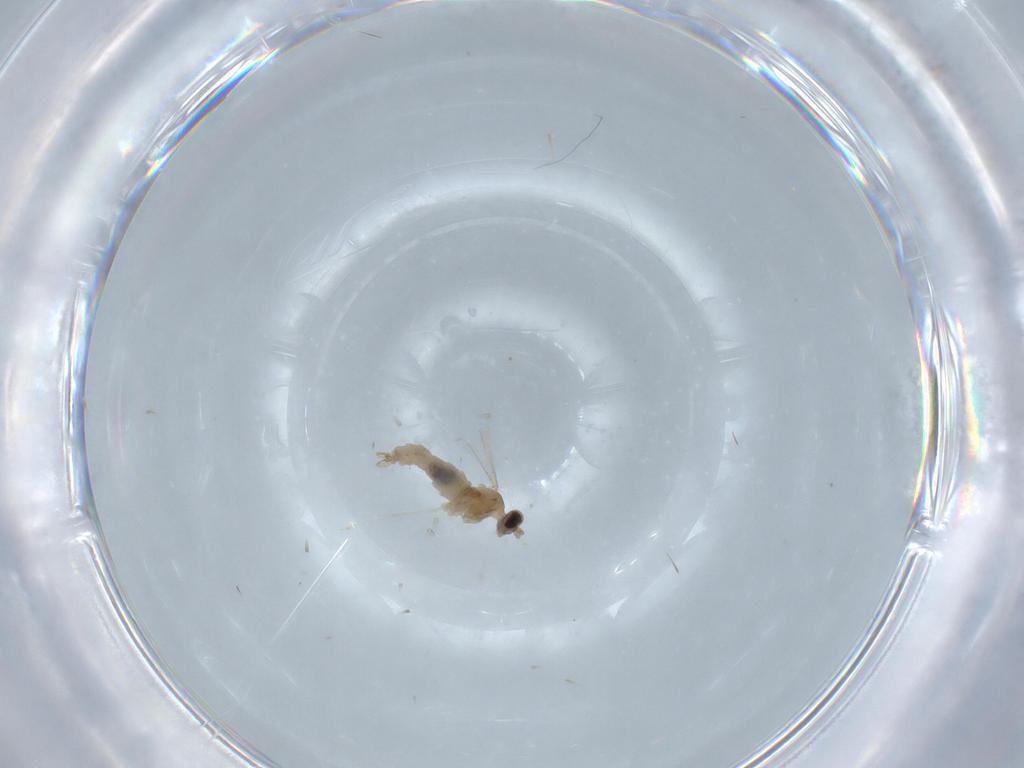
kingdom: Animalia
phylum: Arthropoda
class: Insecta
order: Diptera
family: Cecidomyiidae
